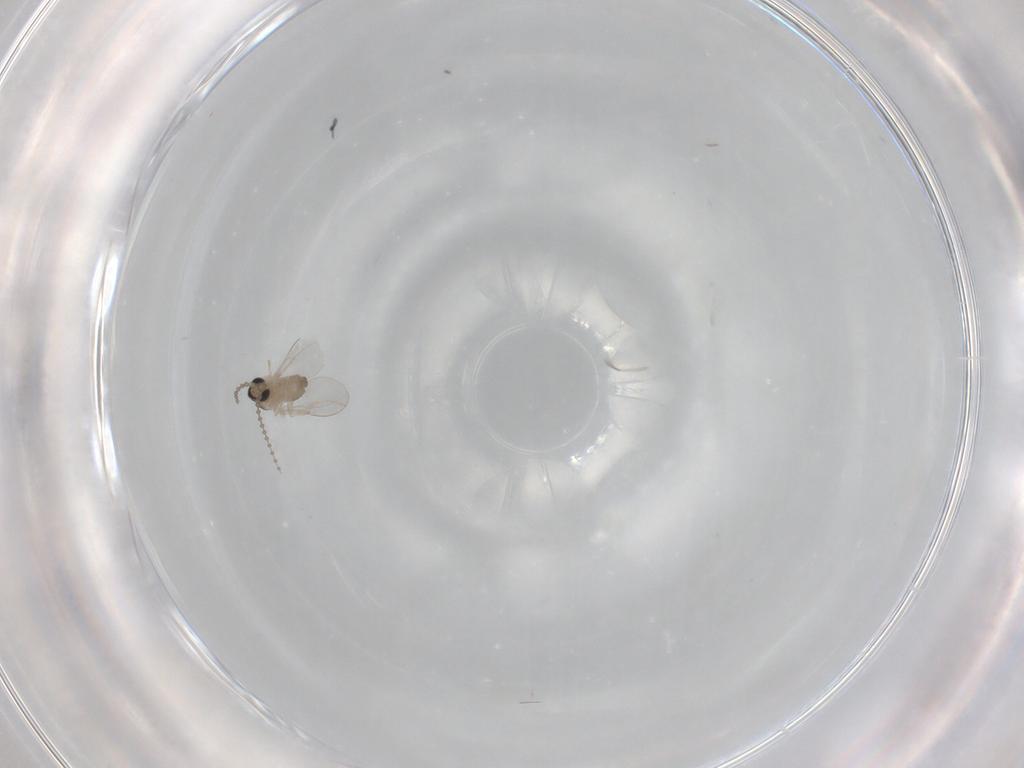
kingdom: Animalia
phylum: Arthropoda
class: Insecta
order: Diptera
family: Cecidomyiidae
